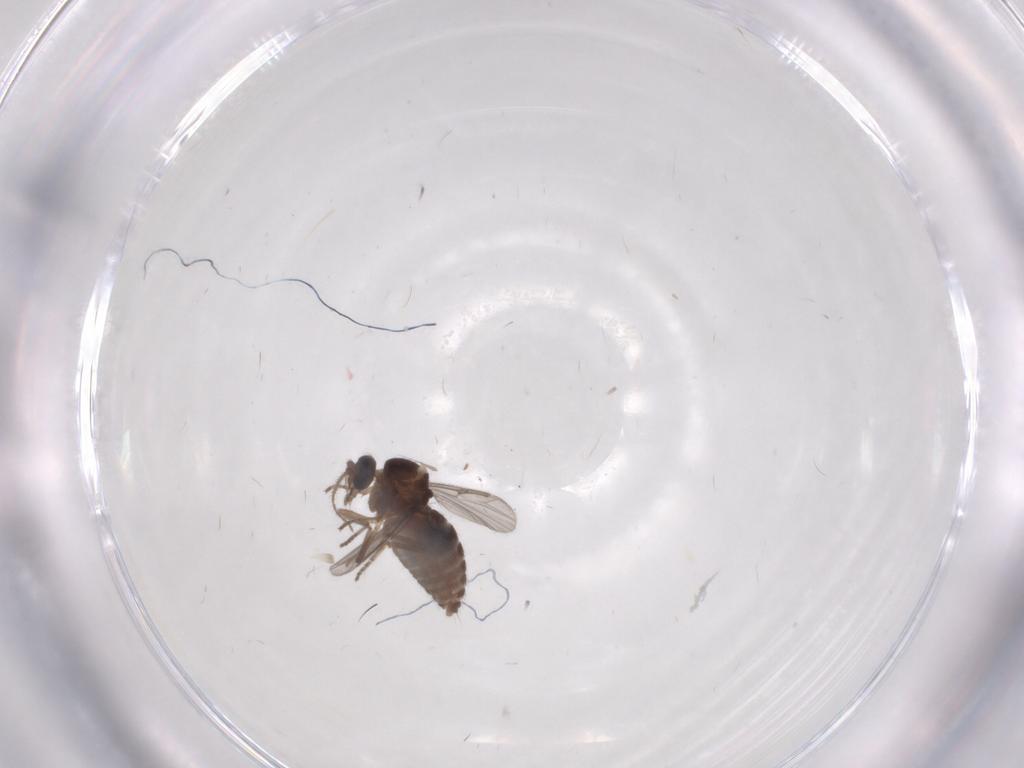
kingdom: Animalia
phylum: Arthropoda
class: Insecta
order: Diptera
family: Ceratopogonidae
